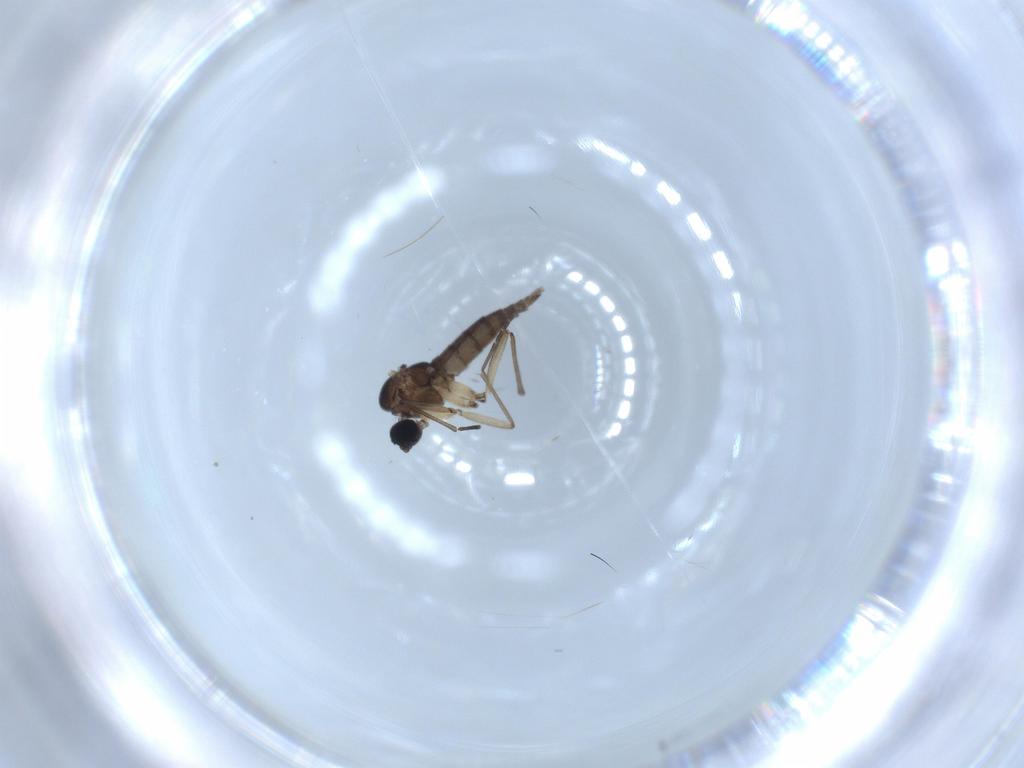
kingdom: Animalia
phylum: Arthropoda
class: Insecta
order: Diptera
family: Sciaridae
